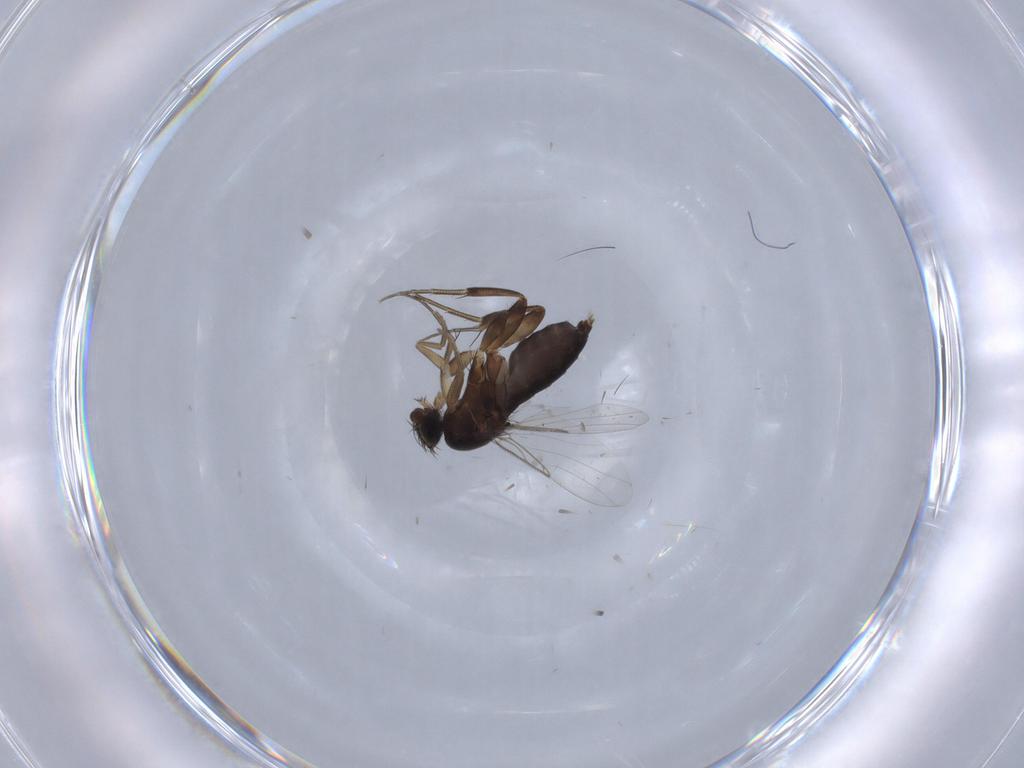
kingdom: Animalia
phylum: Arthropoda
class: Insecta
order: Diptera
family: Phoridae
